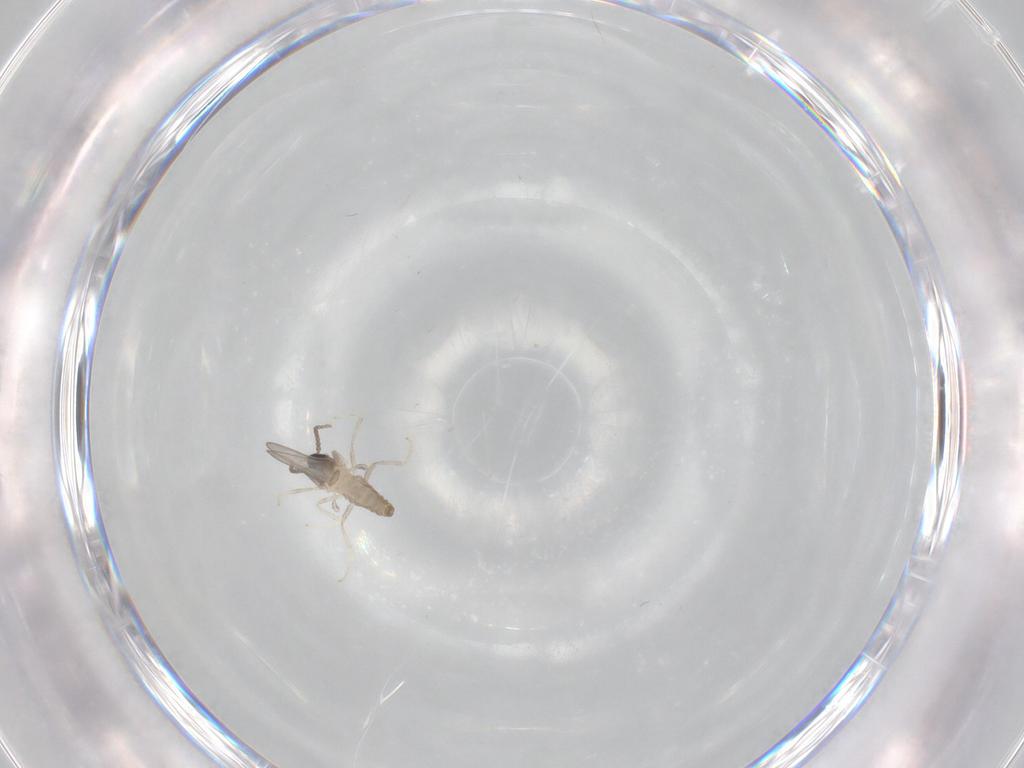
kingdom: Animalia
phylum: Arthropoda
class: Insecta
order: Diptera
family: Cecidomyiidae
